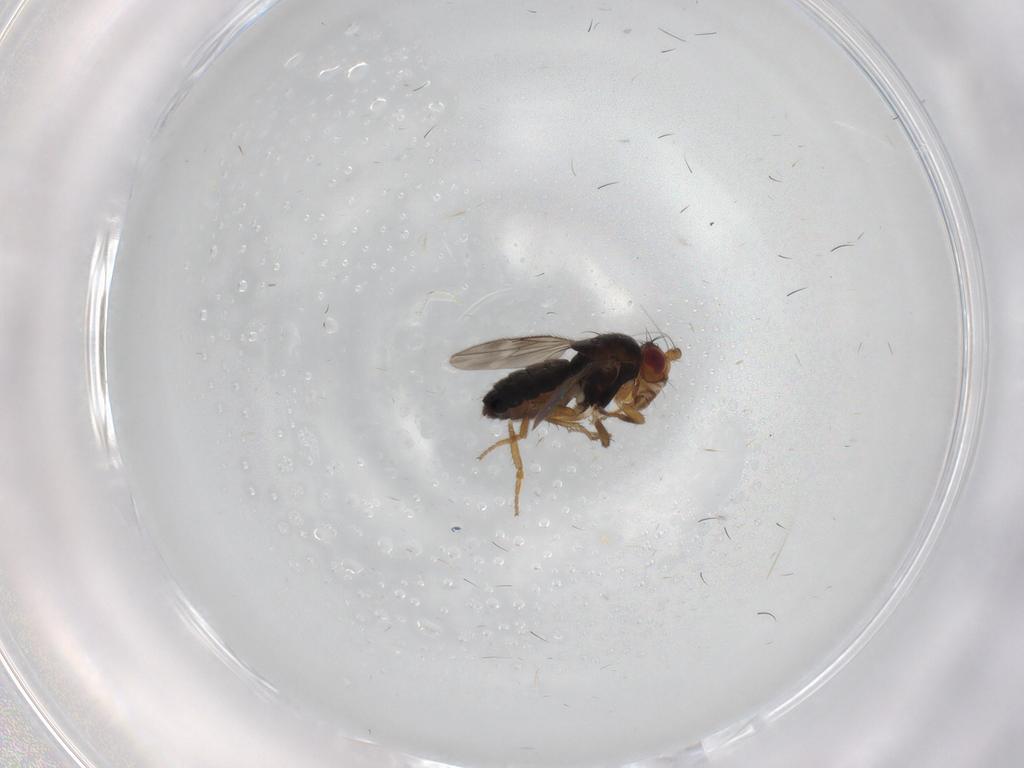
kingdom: Animalia
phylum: Arthropoda
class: Insecta
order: Diptera
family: Sphaeroceridae
